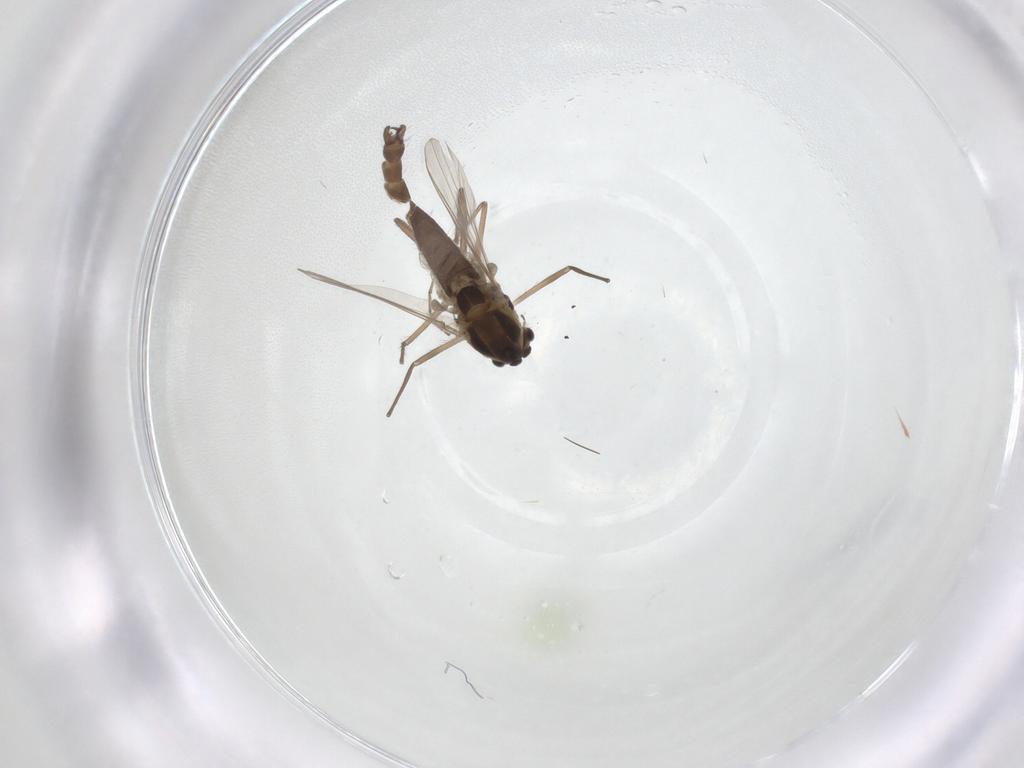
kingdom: Animalia
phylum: Arthropoda
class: Insecta
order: Diptera
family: Chironomidae
